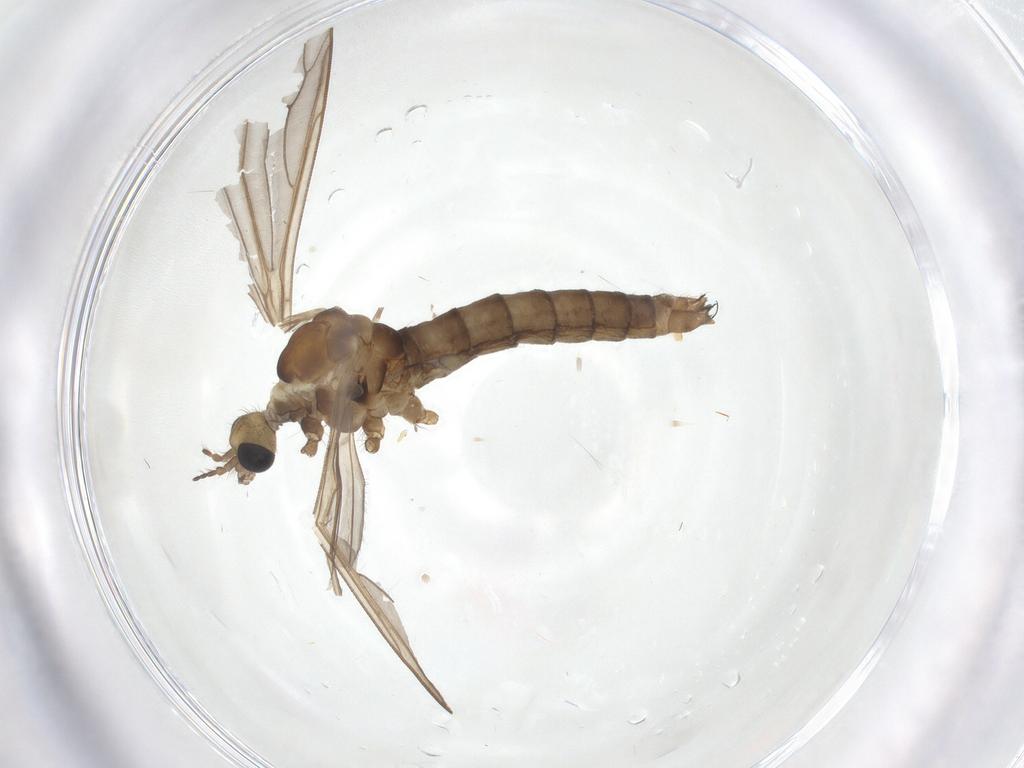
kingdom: Animalia
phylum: Arthropoda
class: Insecta
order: Diptera
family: Limoniidae
